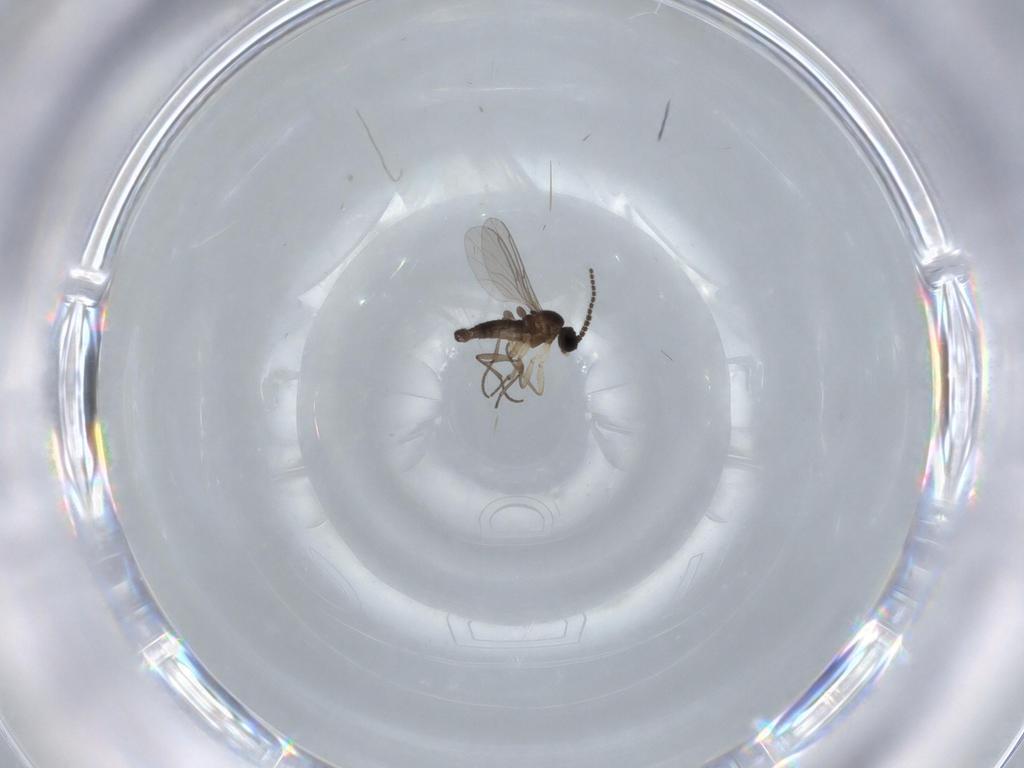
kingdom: Animalia
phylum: Arthropoda
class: Insecta
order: Diptera
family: Sciaridae
